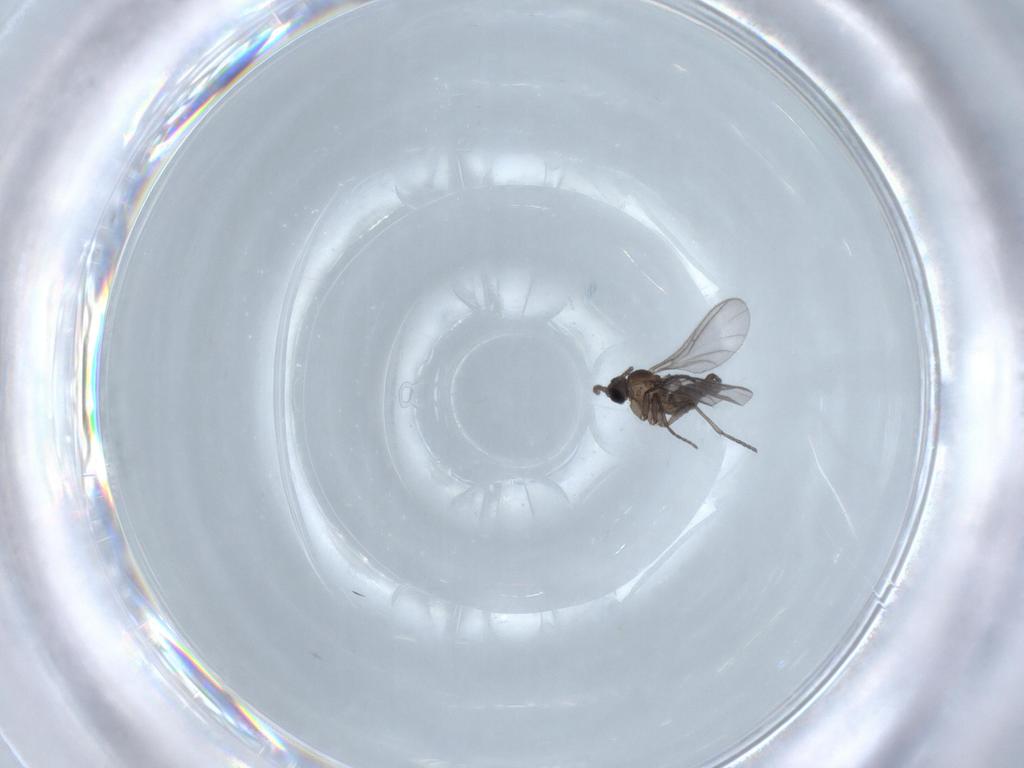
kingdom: Animalia
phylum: Arthropoda
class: Insecta
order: Diptera
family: Sciaridae
